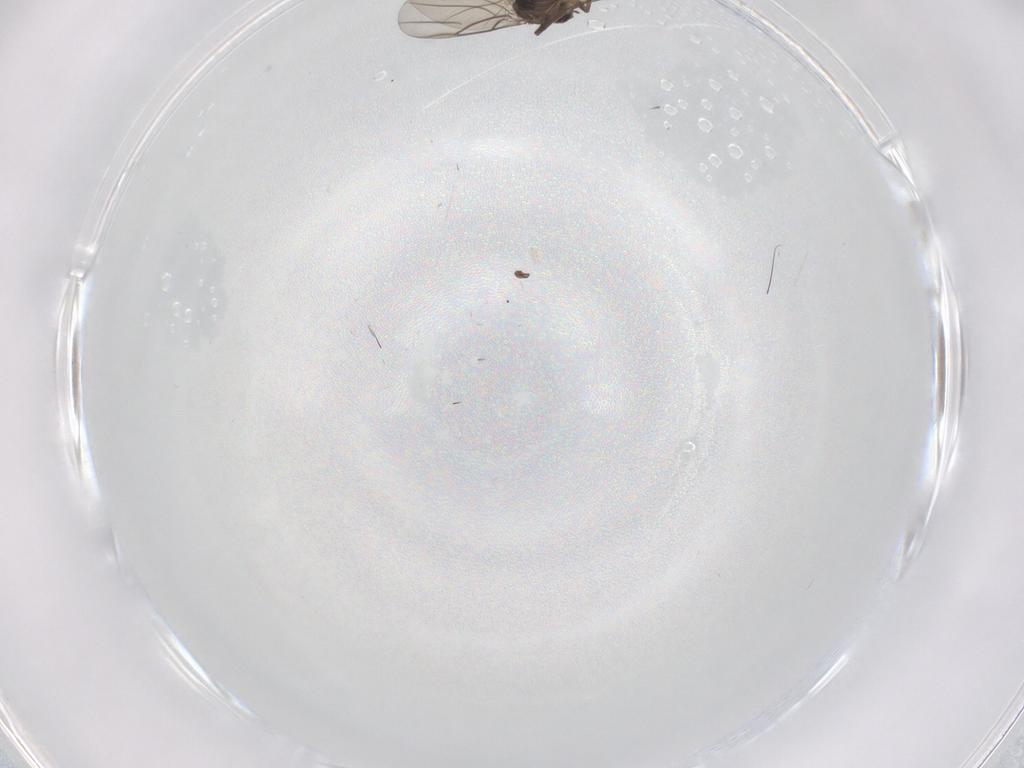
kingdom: Animalia
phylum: Arthropoda
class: Insecta
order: Diptera
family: Phoridae
